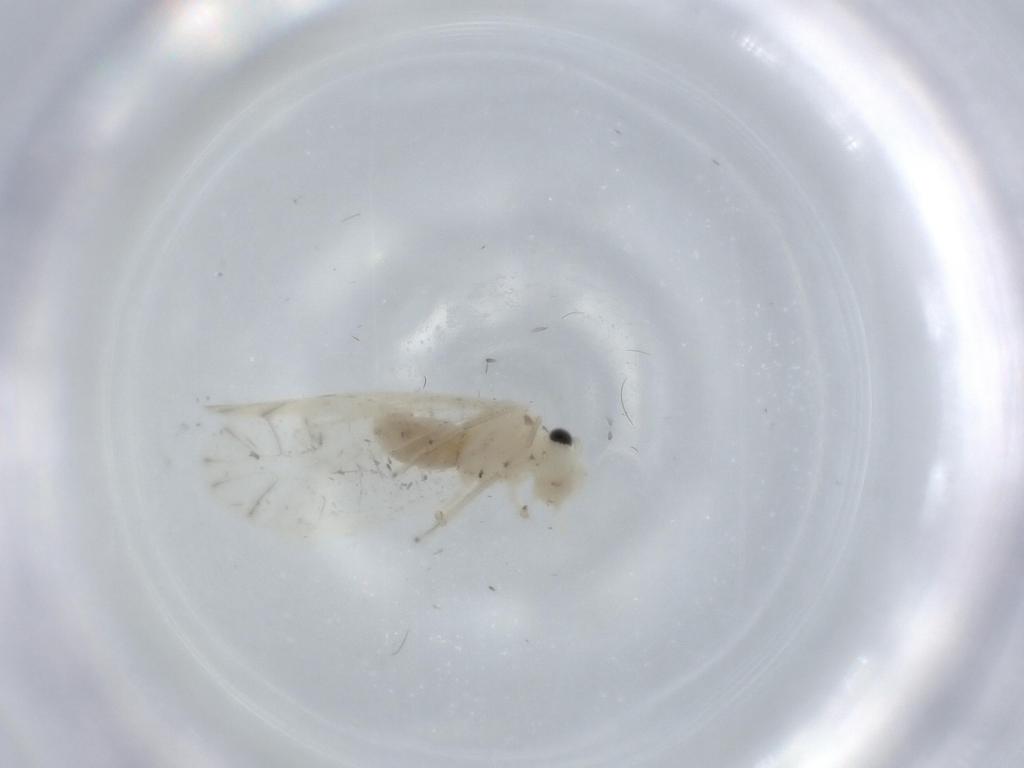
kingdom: Animalia
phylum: Arthropoda
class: Insecta
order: Psocodea
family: Caeciliusidae
